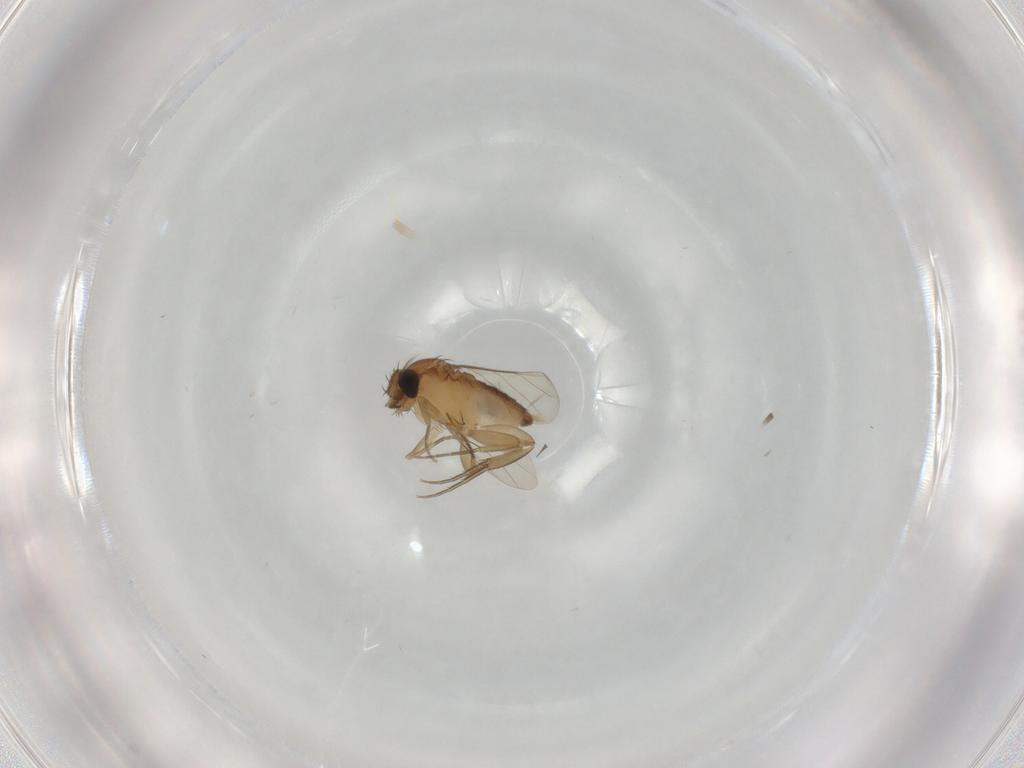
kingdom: Animalia
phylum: Arthropoda
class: Insecta
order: Diptera
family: Phoridae
